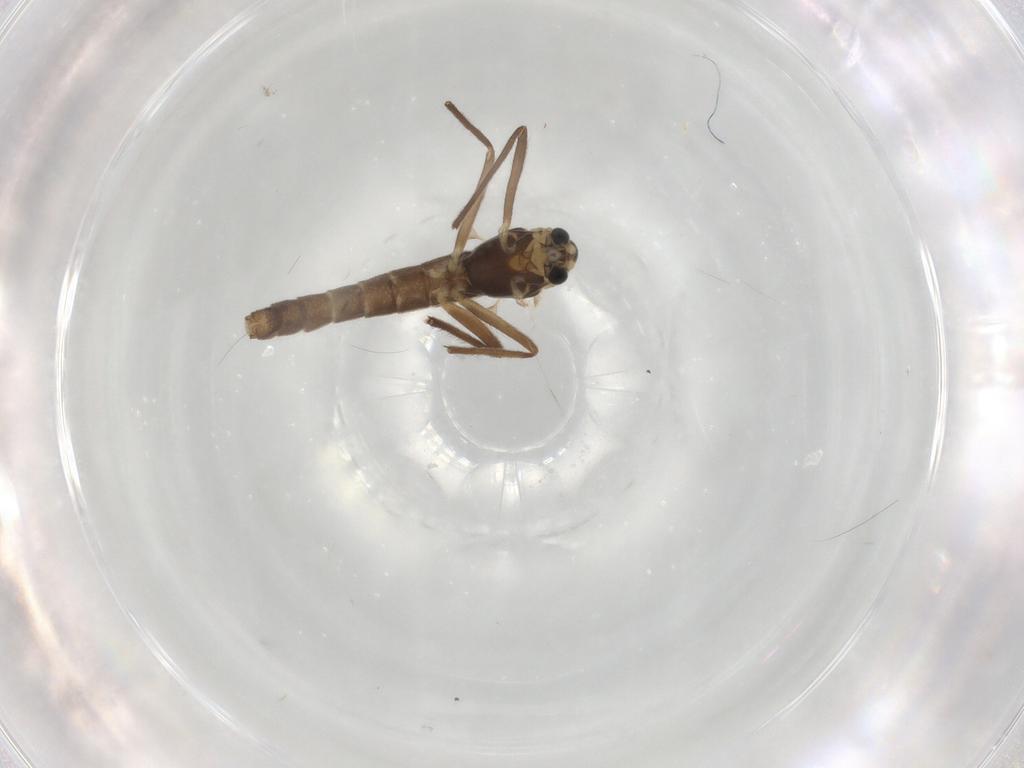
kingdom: Animalia
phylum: Arthropoda
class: Insecta
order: Diptera
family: Chironomidae
